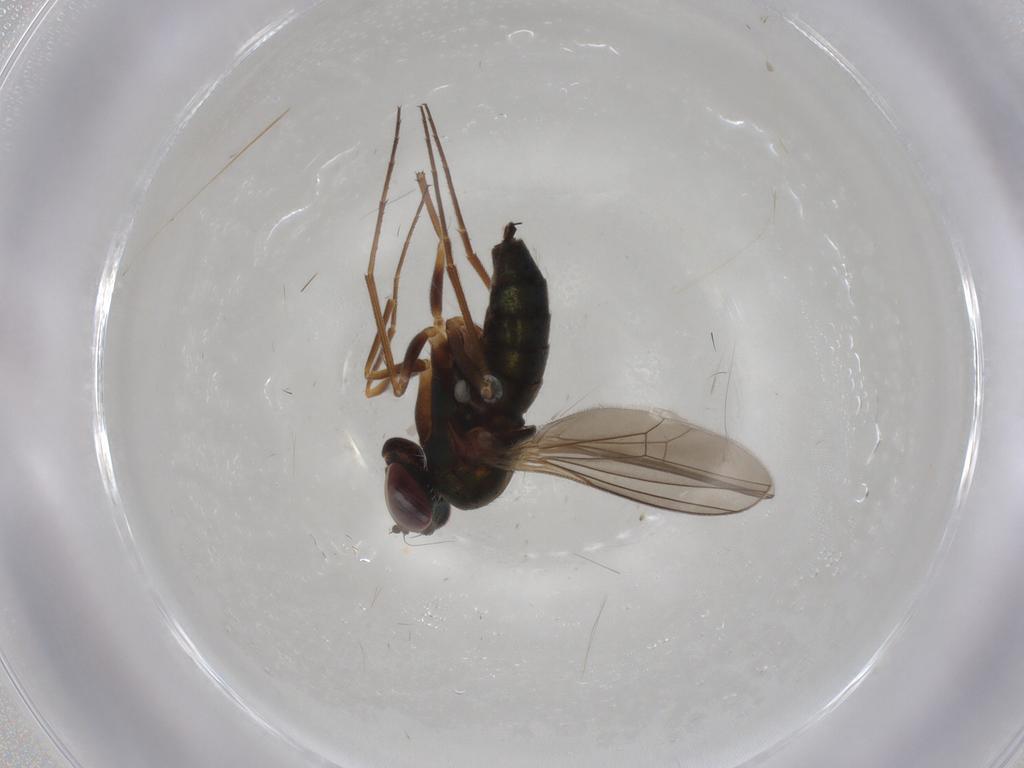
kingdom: Animalia
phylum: Arthropoda
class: Insecta
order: Diptera
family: Dolichopodidae
